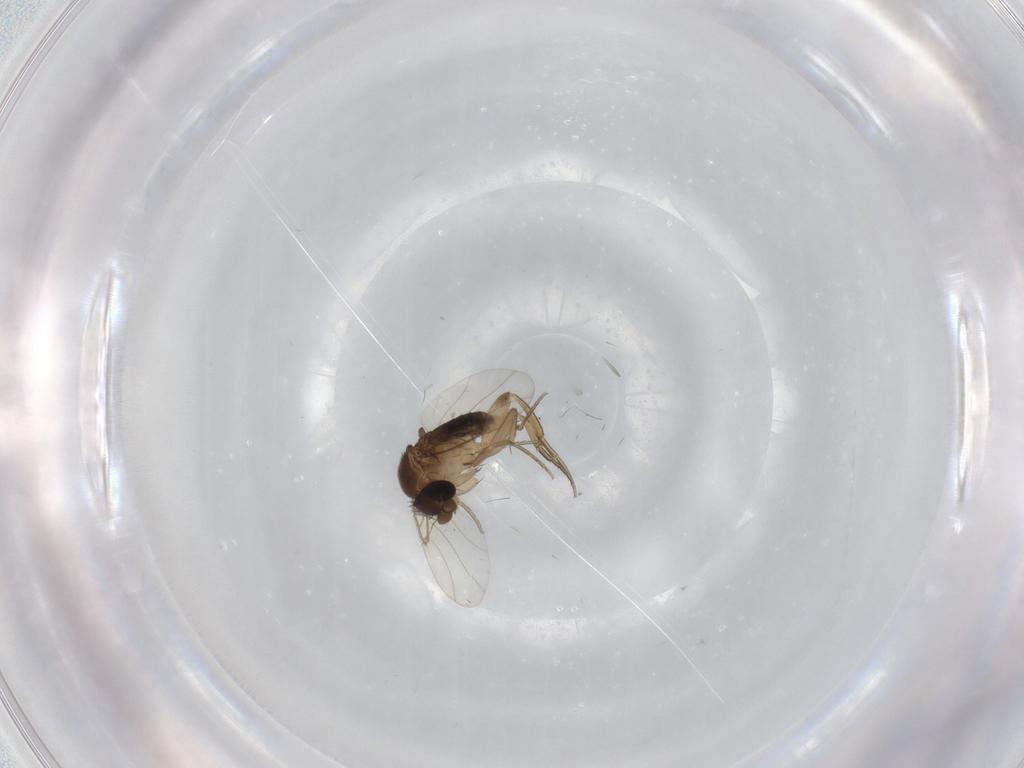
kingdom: Animalia
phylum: Arthropoda
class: Insecta
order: Diptera
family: Phoridae
